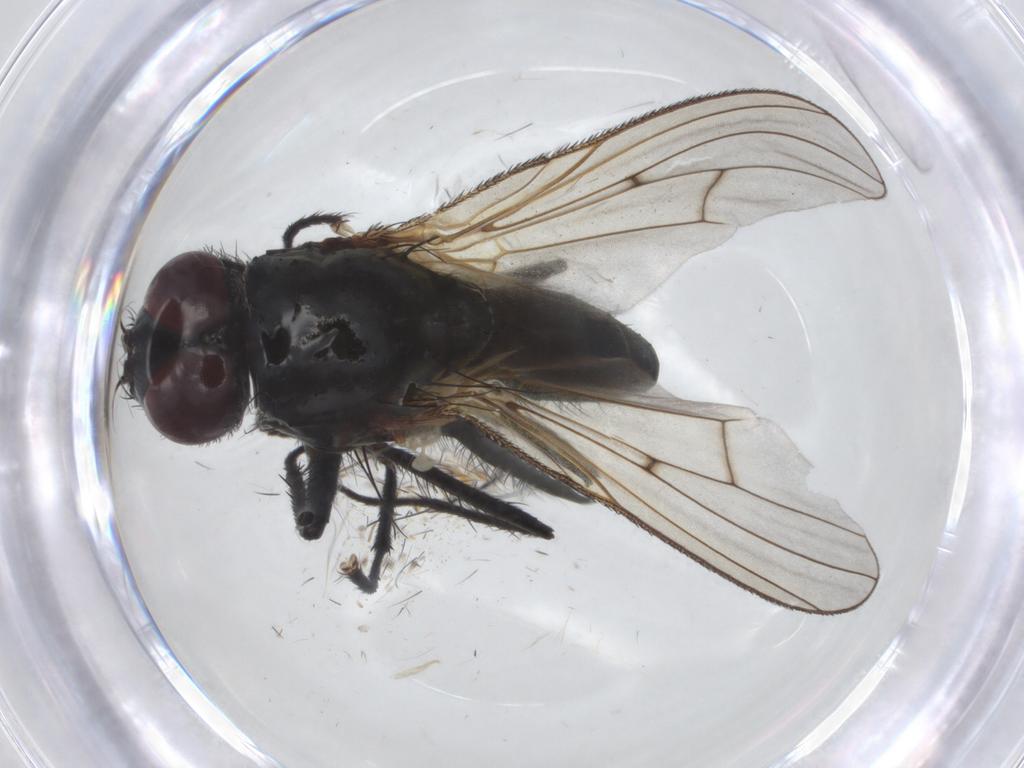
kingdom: Animalia
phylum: Arthropoda
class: Insecta
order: Diptera
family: Anthomyiidae
